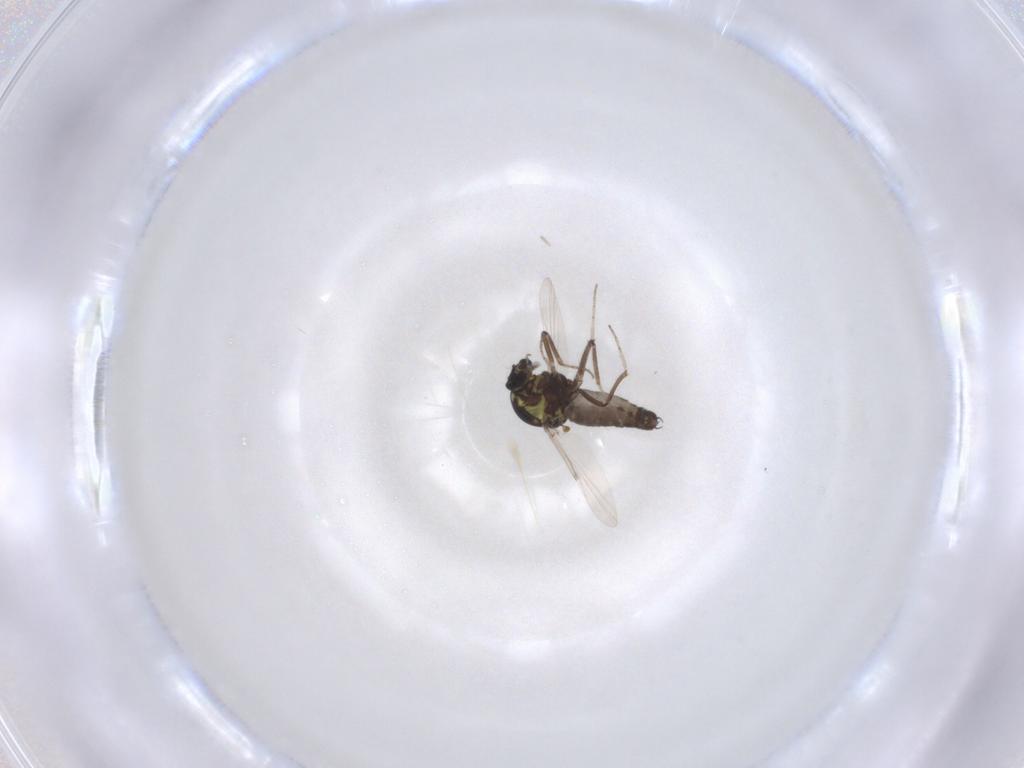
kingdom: Animalia
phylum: Arthropoda
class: Insecta
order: Diptera
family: Ceratopogonidae
